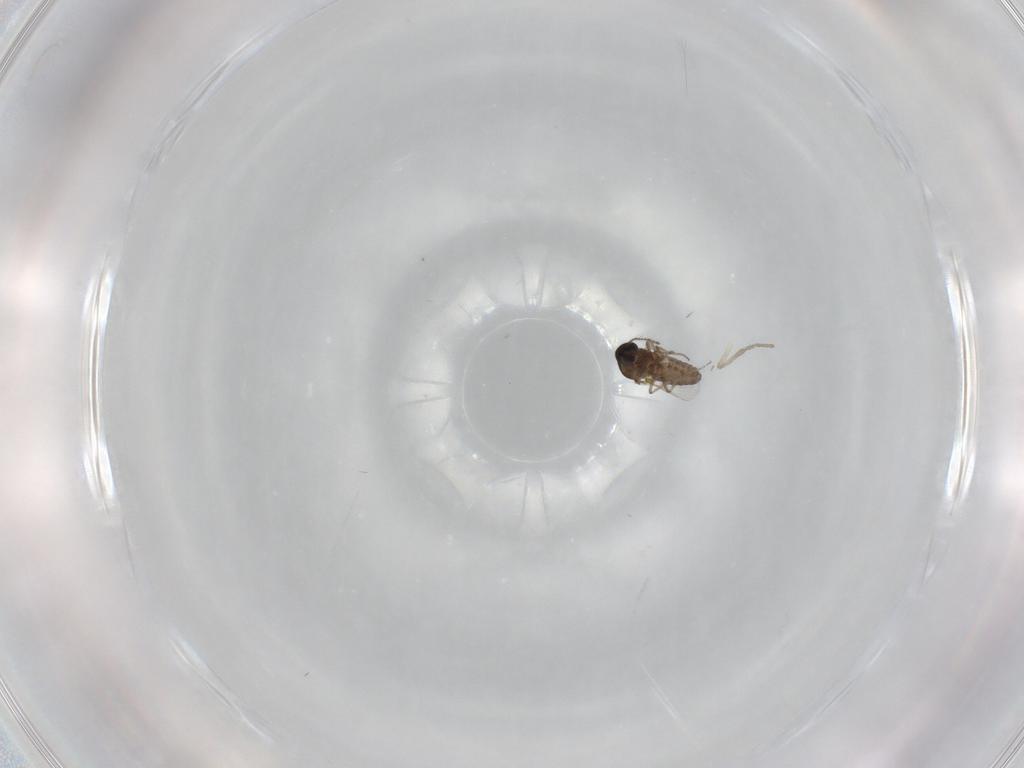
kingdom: Animalia
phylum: Arthropoda
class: Insecta
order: Diptera
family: Ceratopogonidae
